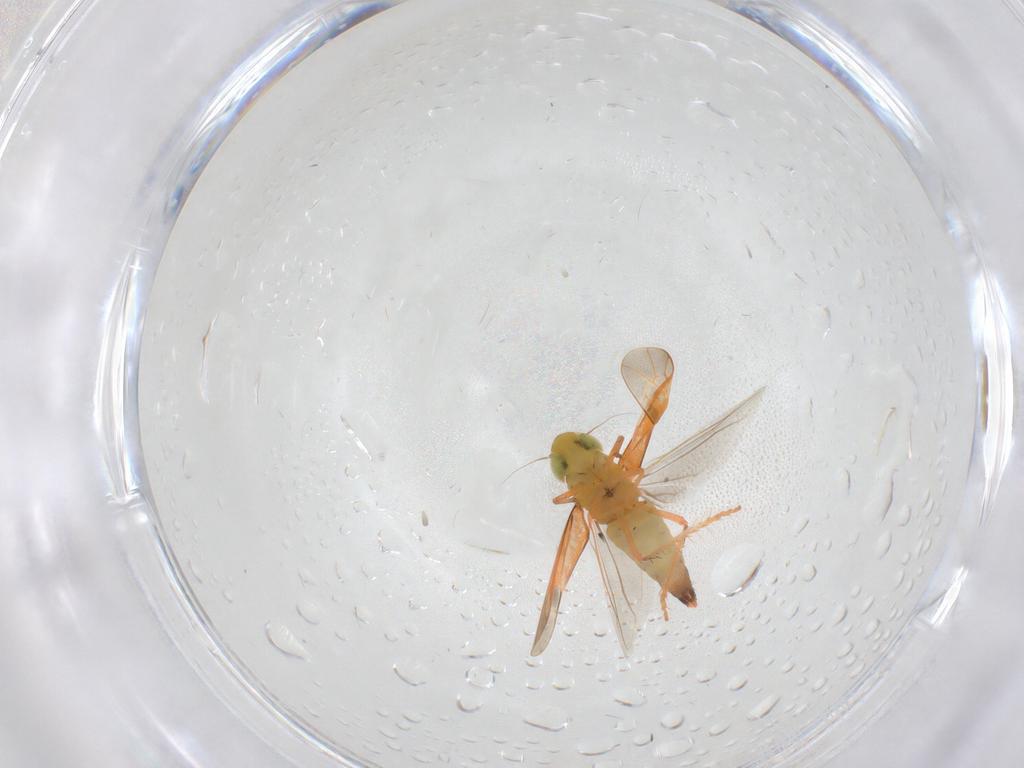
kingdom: Animalia
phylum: Arthropoda
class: Insecta
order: Hemiptera
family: Cicadellidae
